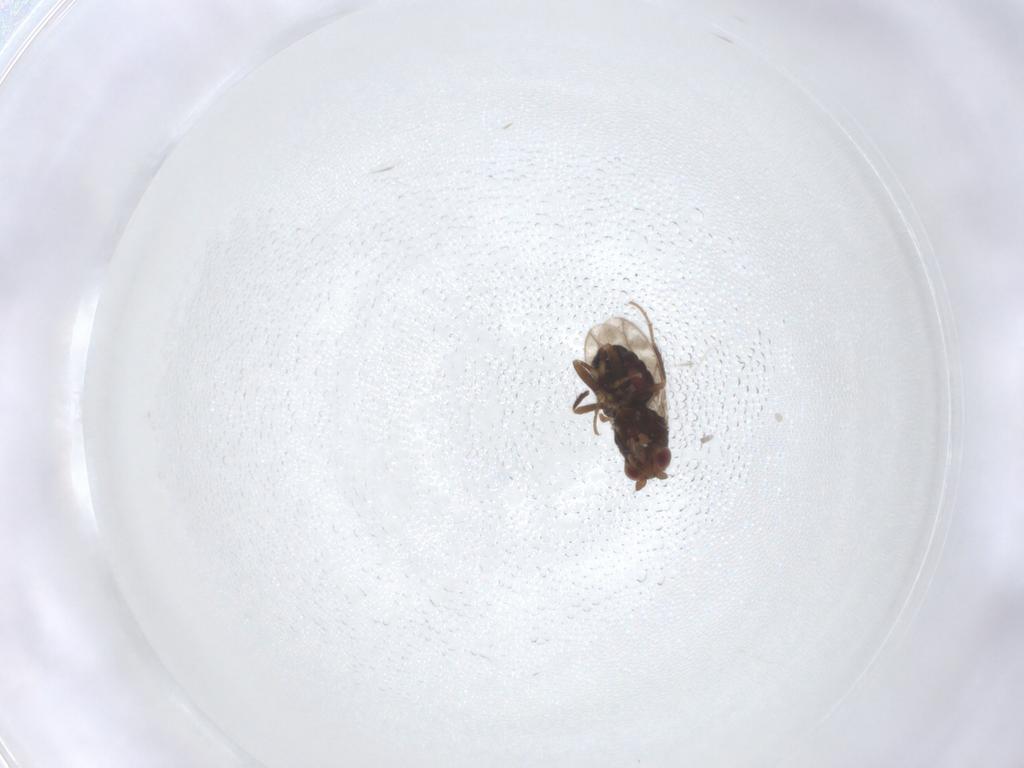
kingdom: Animalia
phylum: Arthropoda
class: Insecta
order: Diptera
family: Sphaeroceridae
